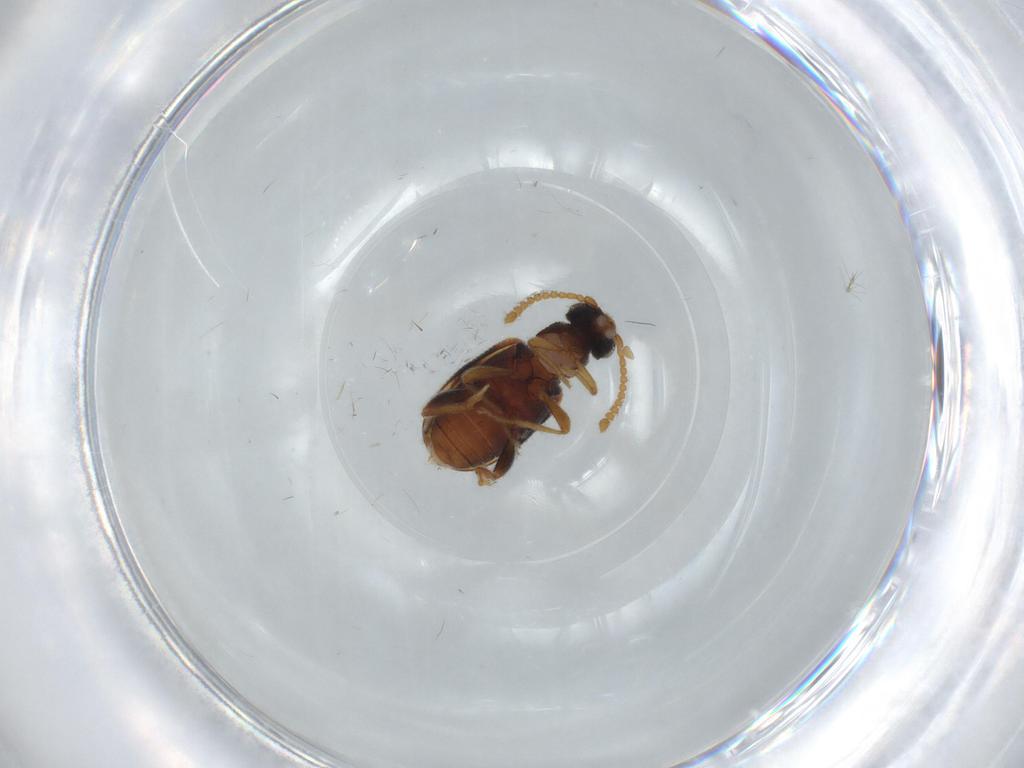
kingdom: Animalia
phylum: Arthropoda
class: Insecta
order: Coleoptera
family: Aderidae
